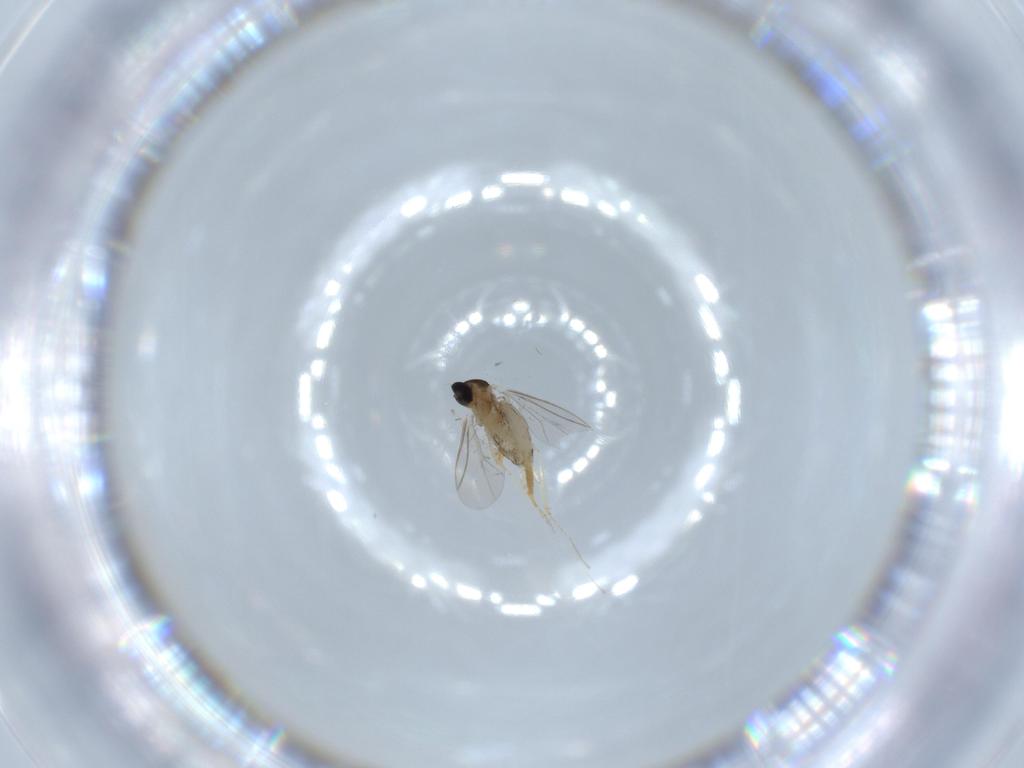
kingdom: Animalia
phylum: Arthropoda
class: Insecta
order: Diptera
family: Cecidomyiidae
